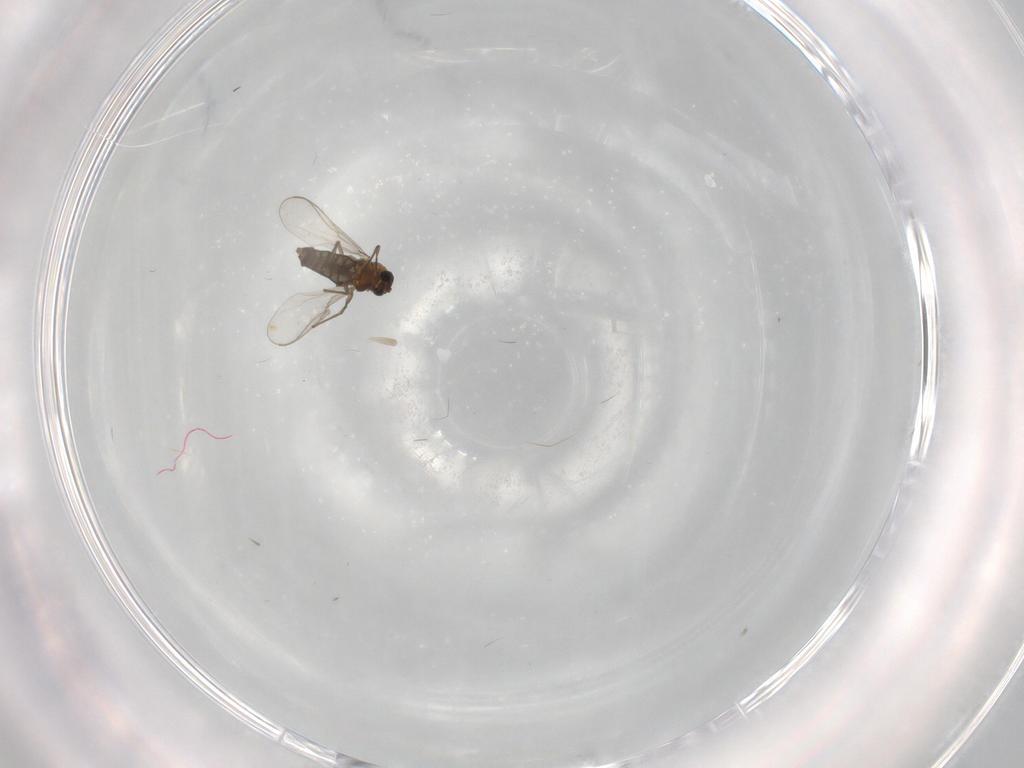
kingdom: Animalia
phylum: Arthropoda
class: Insecta
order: Diptera
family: Chironomidae
